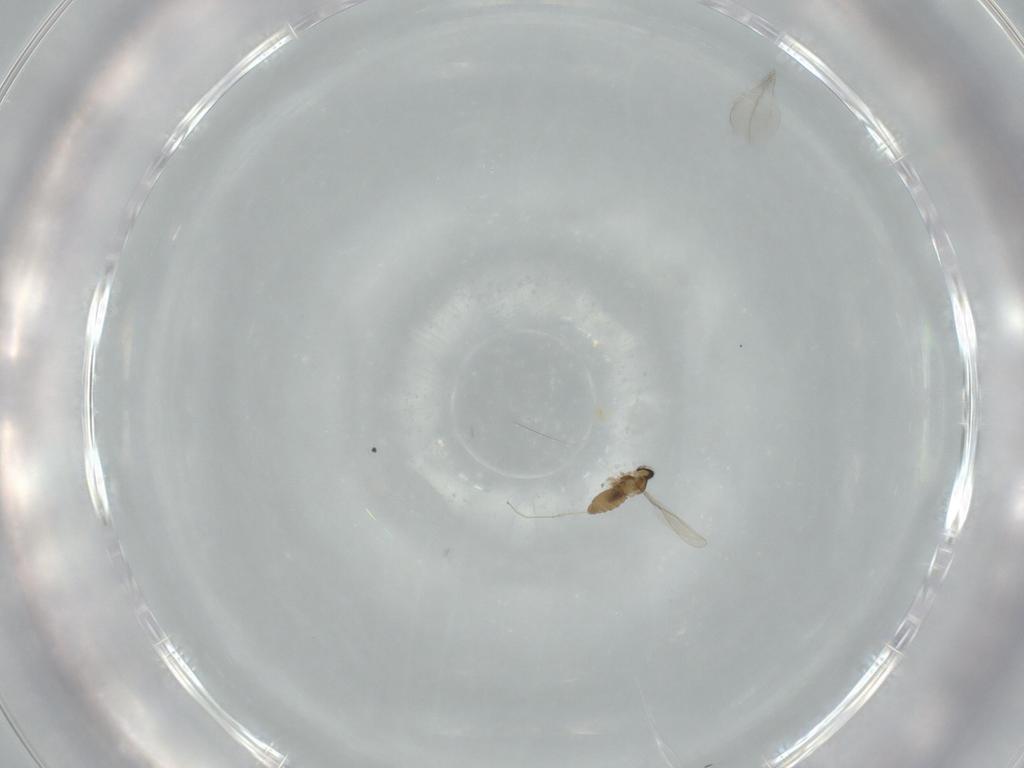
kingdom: Animalia
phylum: Arthropoda
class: Insecta
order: Diptera
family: Cecidomyiidae
